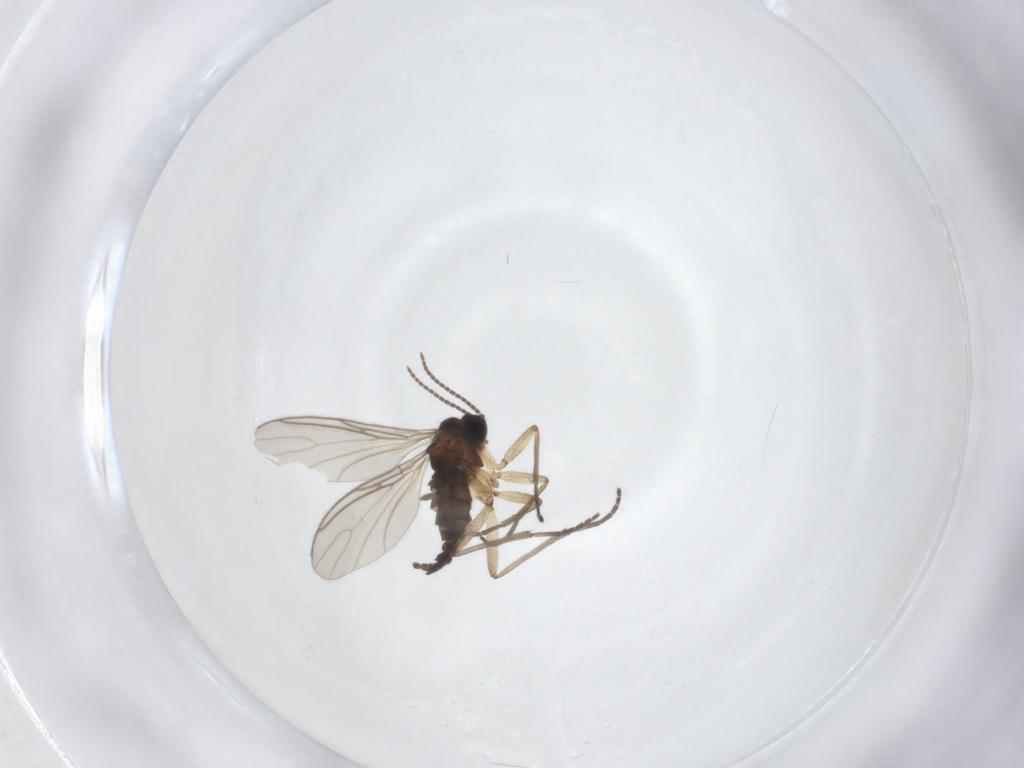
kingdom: Animalia
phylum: Arthropoda
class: Insecta
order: Diptera
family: Sciaridae
